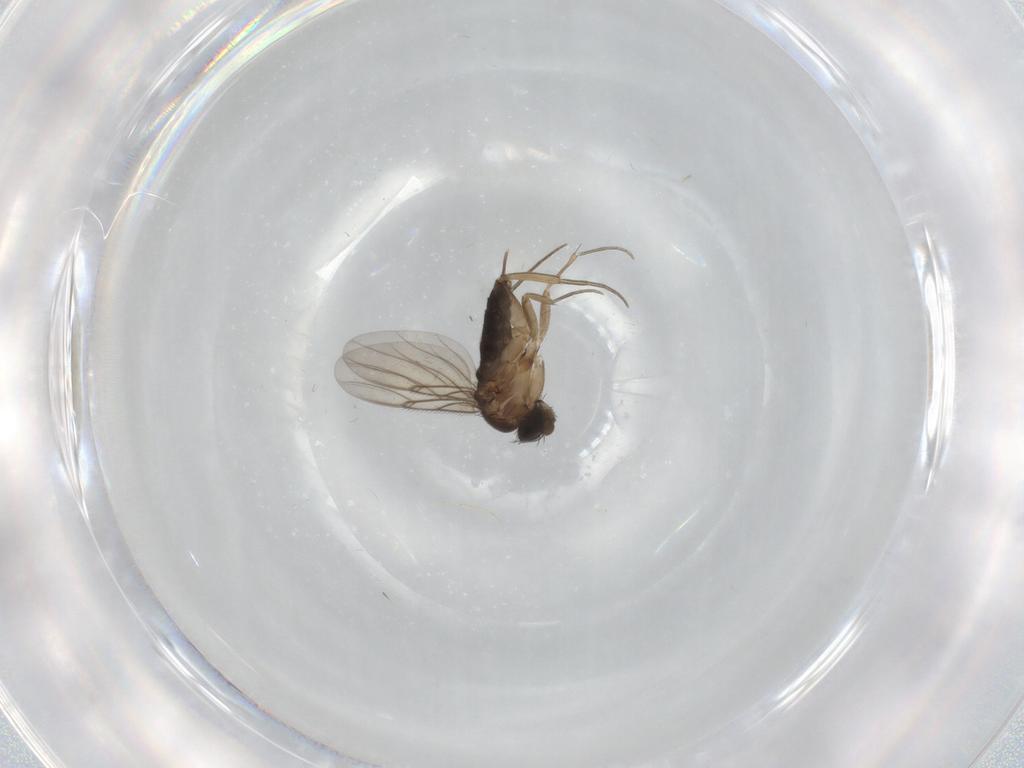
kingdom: Animalia
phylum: Arthropoda
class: Insecta
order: Diptera
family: Phoridae
